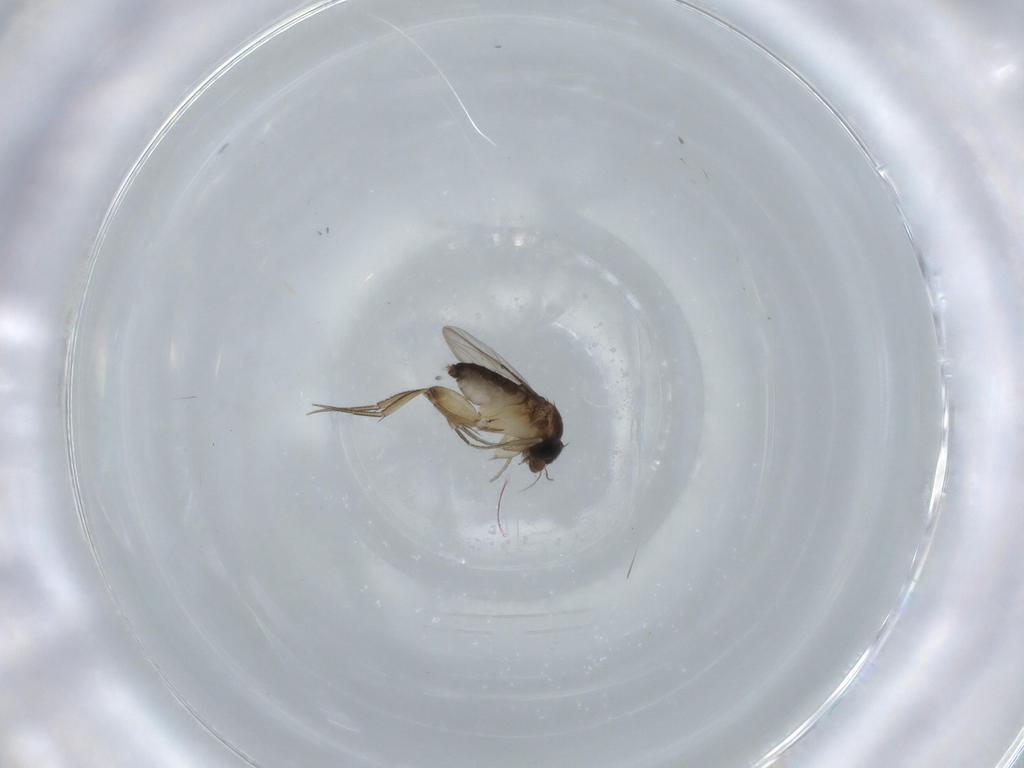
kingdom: Animalia
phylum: Arthropoda
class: Insecta
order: Diptera
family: Phoridae
